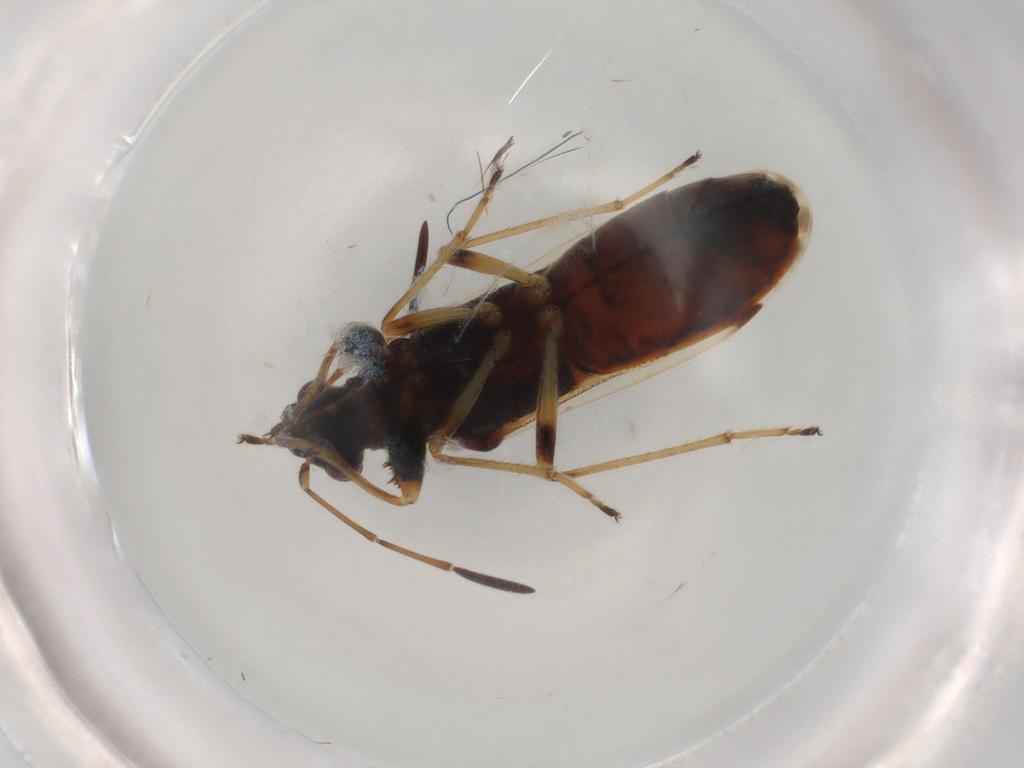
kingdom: Animalia
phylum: Arthropoda
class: Insecta
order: Hemiptera
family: Rhyparochromidae
